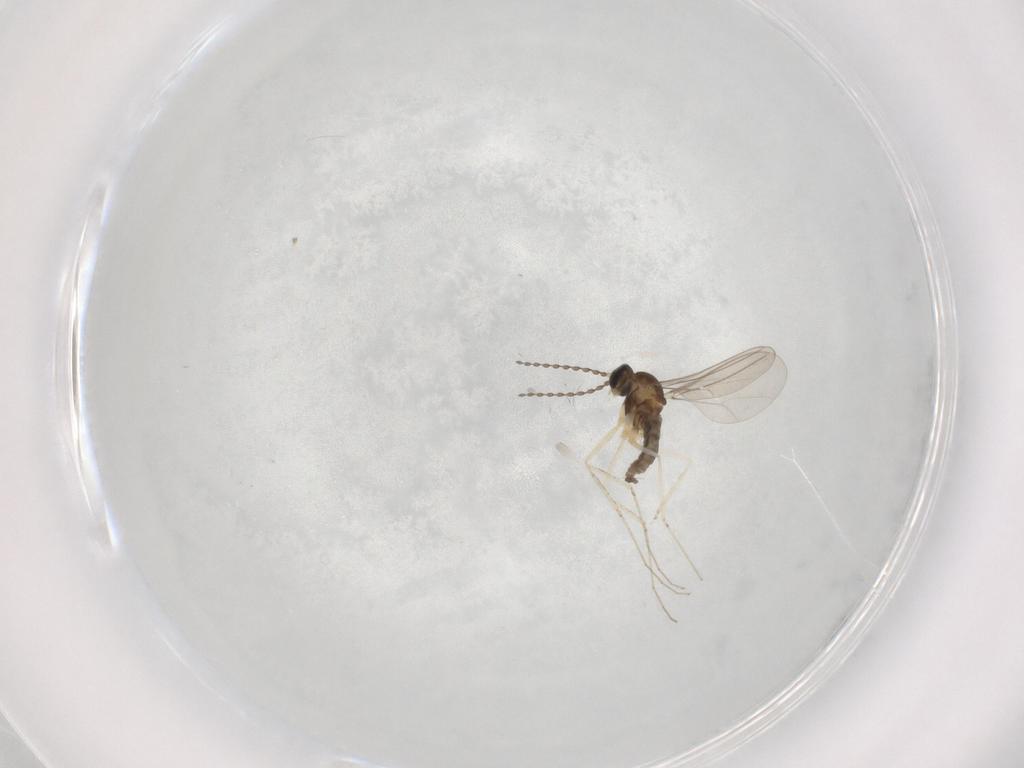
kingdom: Animalia
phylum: Arthropoda
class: Insecta
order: Diptera
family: Cecidomyiidae
